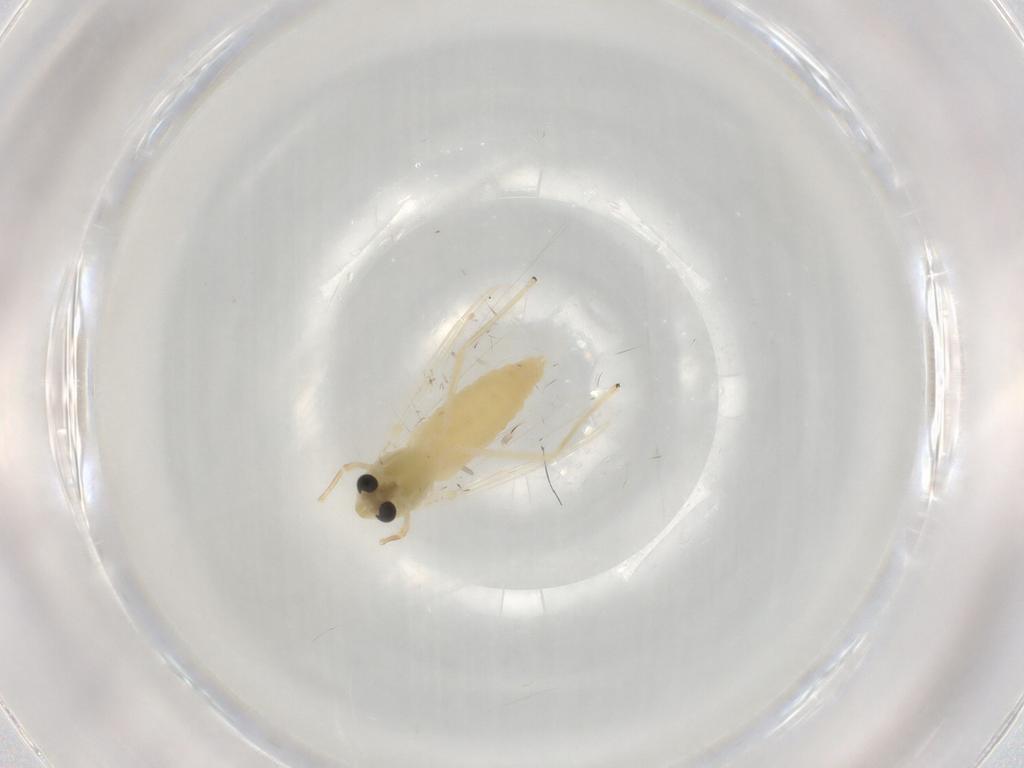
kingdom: Animalia
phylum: Arthropoda
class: Insecta
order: Diptera
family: Chironomidae
